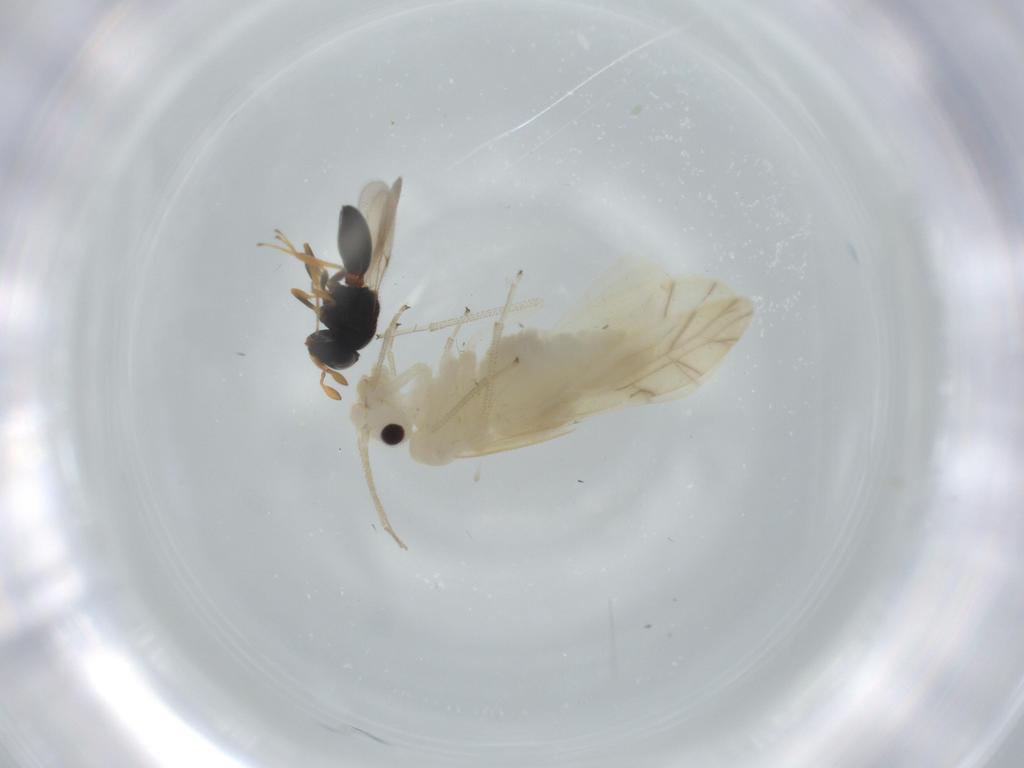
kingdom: Animalia
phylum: Arthropoda
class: Insecta
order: Psocodea
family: Caeciliusidae
